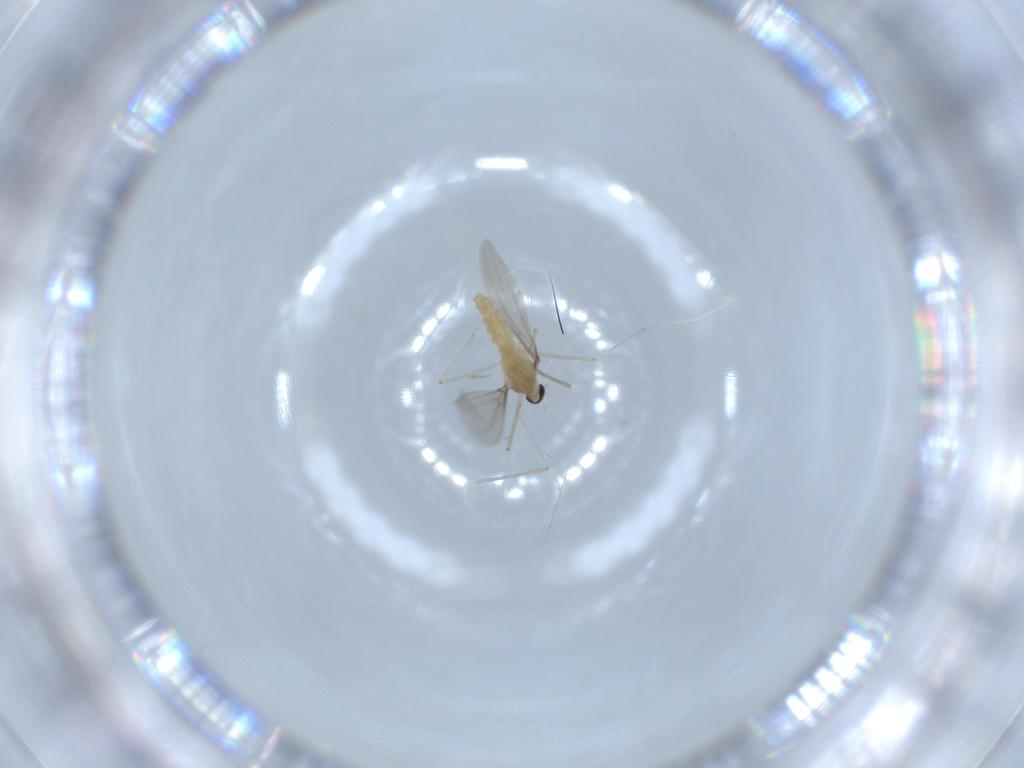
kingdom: Animalia
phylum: Arthropoda
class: Insecta
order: Diptera
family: Cecidomyiidae
